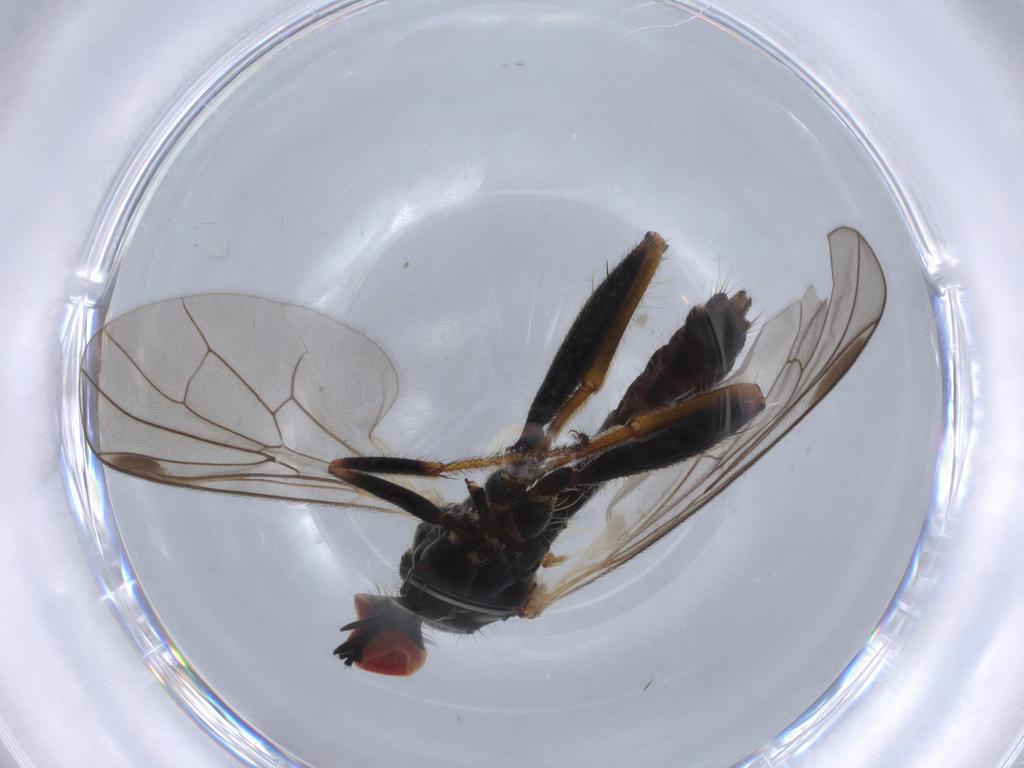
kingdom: Animalia
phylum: Arthropoda
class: Insecta
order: Diptera
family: Hybotidae
